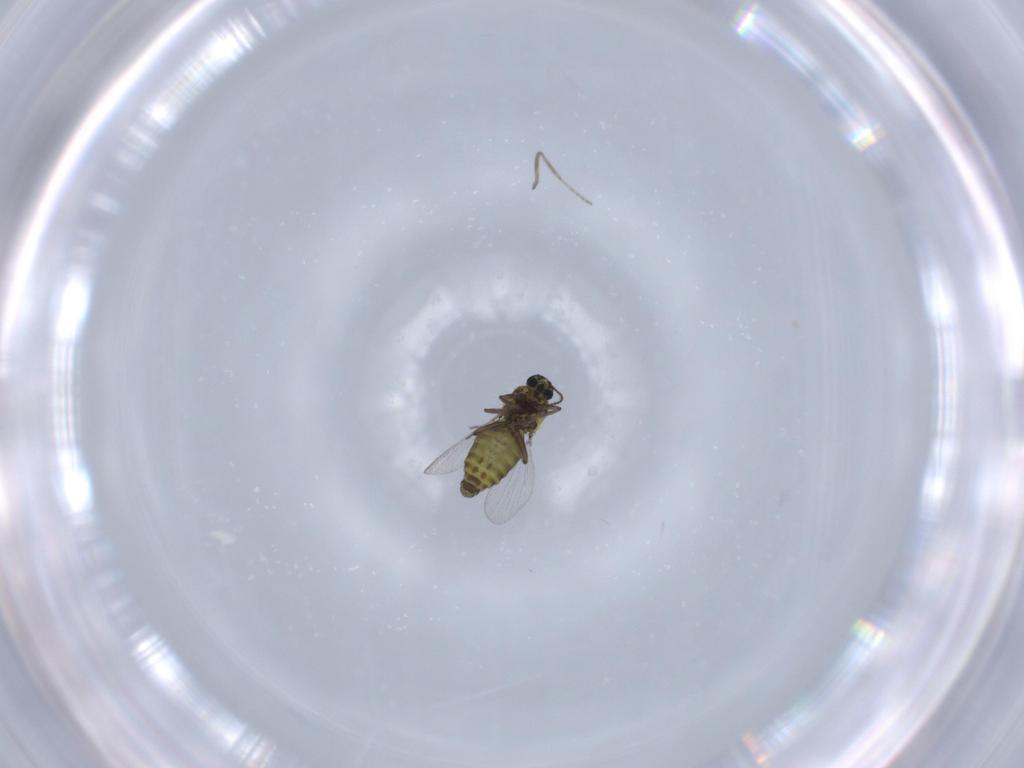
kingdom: Animalia
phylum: Arthropoda
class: Insecta
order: Diptera
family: Ceratopogonidae
